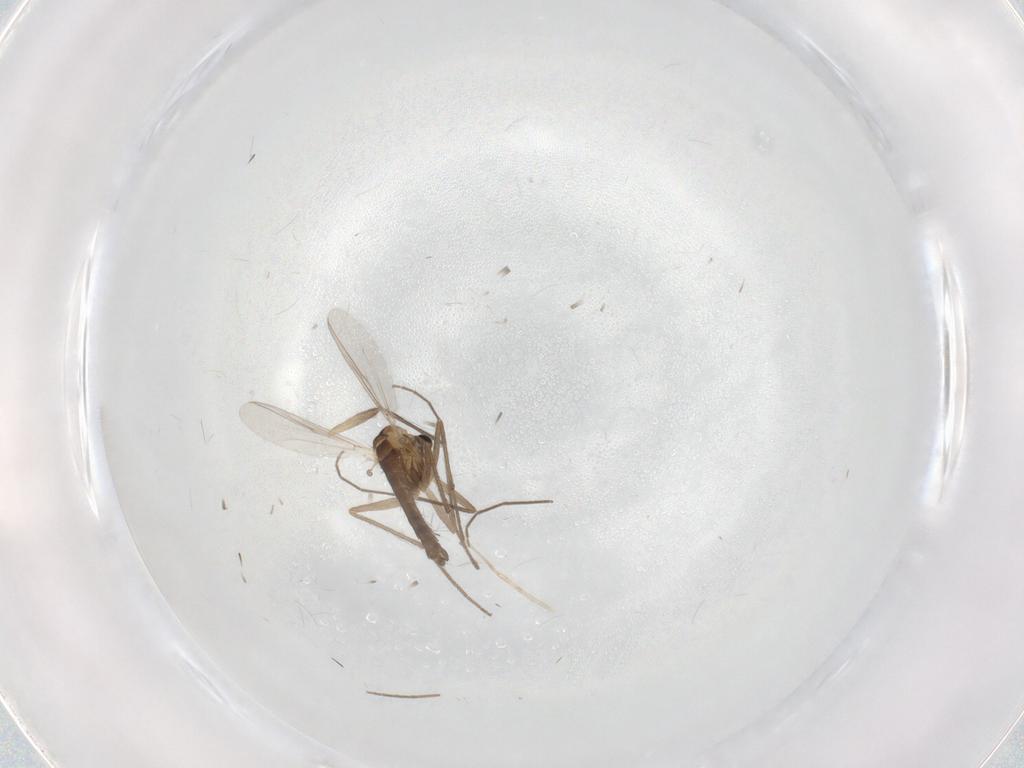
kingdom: Animalia
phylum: Arthropoda
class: Insecta
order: Diptera
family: Chironomidae
